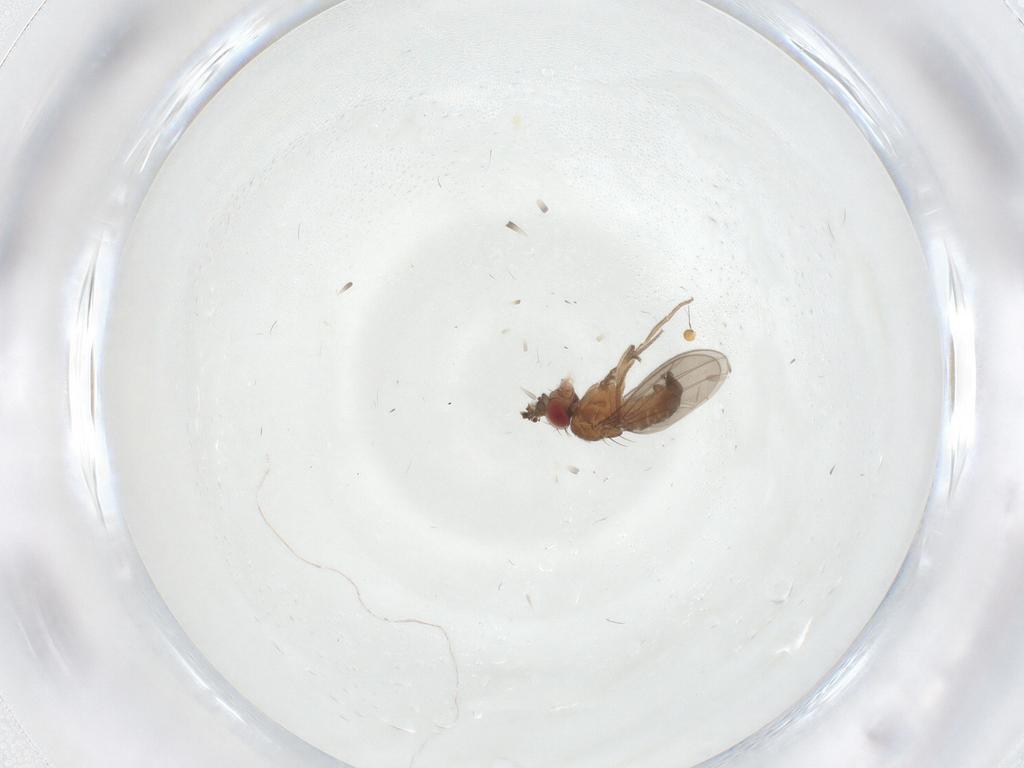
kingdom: Animalia
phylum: Arthropoda
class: Insecta
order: Diptera
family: Drosophilidae
